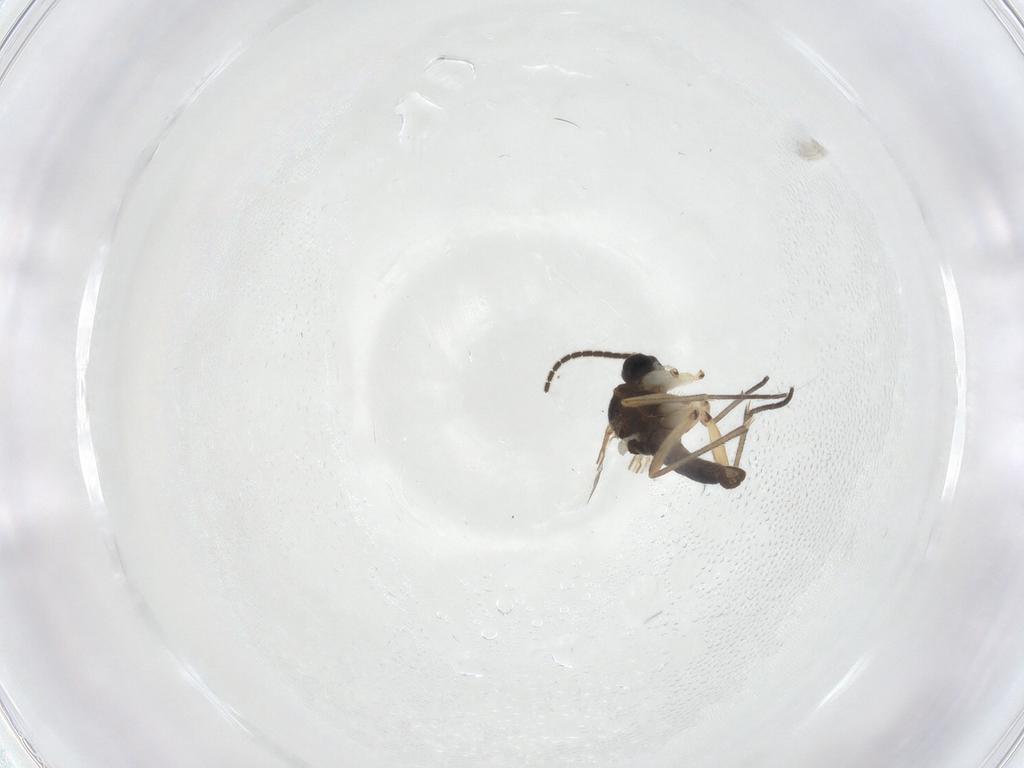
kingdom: Animalia
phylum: Arthropoda
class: Insecta
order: Diptera
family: Sciaridae
